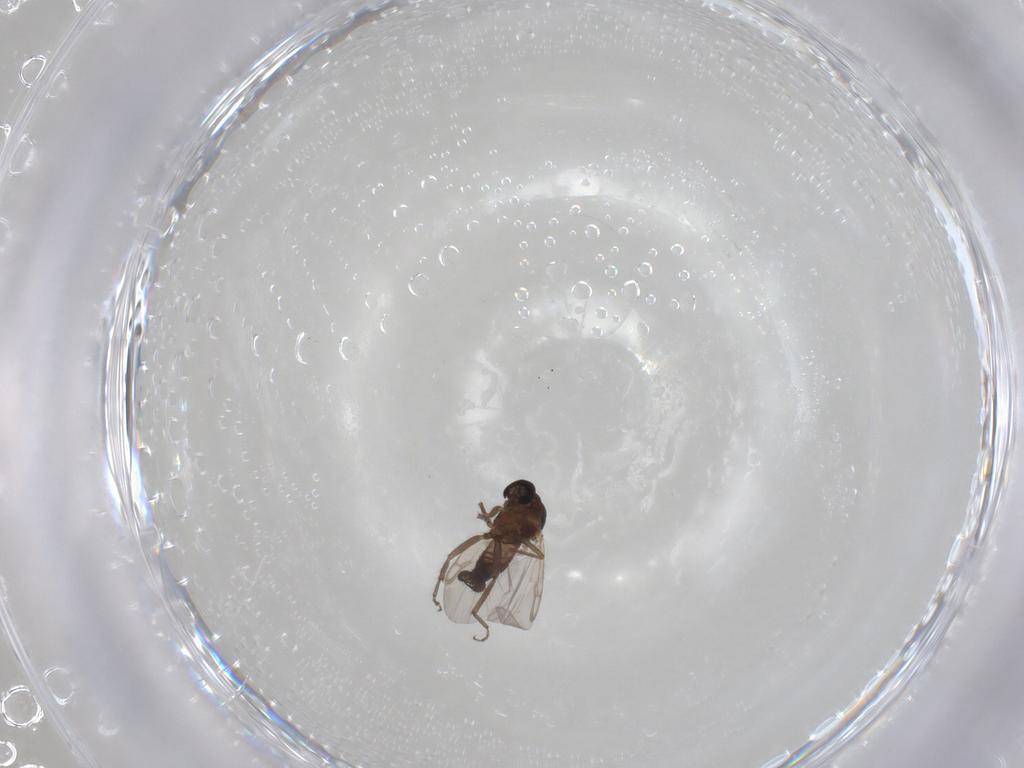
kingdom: Animalia
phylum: Arthropoda
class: Insecta
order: Diptera
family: Ceratopogonidae
